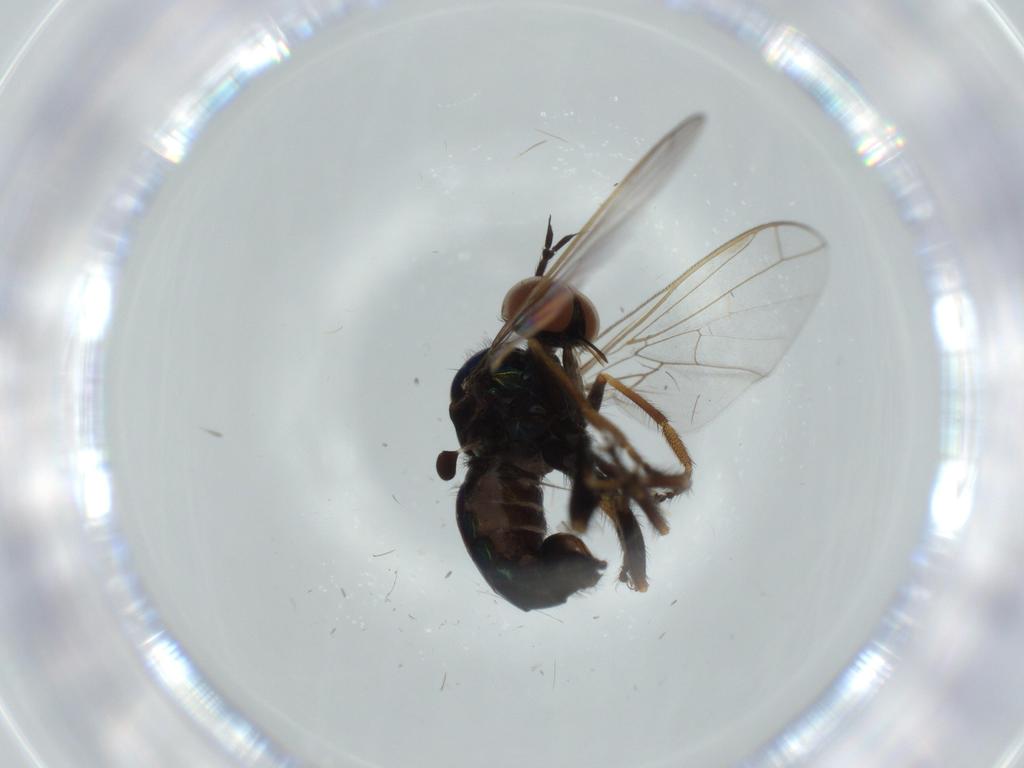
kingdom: Animalia
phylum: Arthropoda
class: Insecta
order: Diptera
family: Psychodidae
